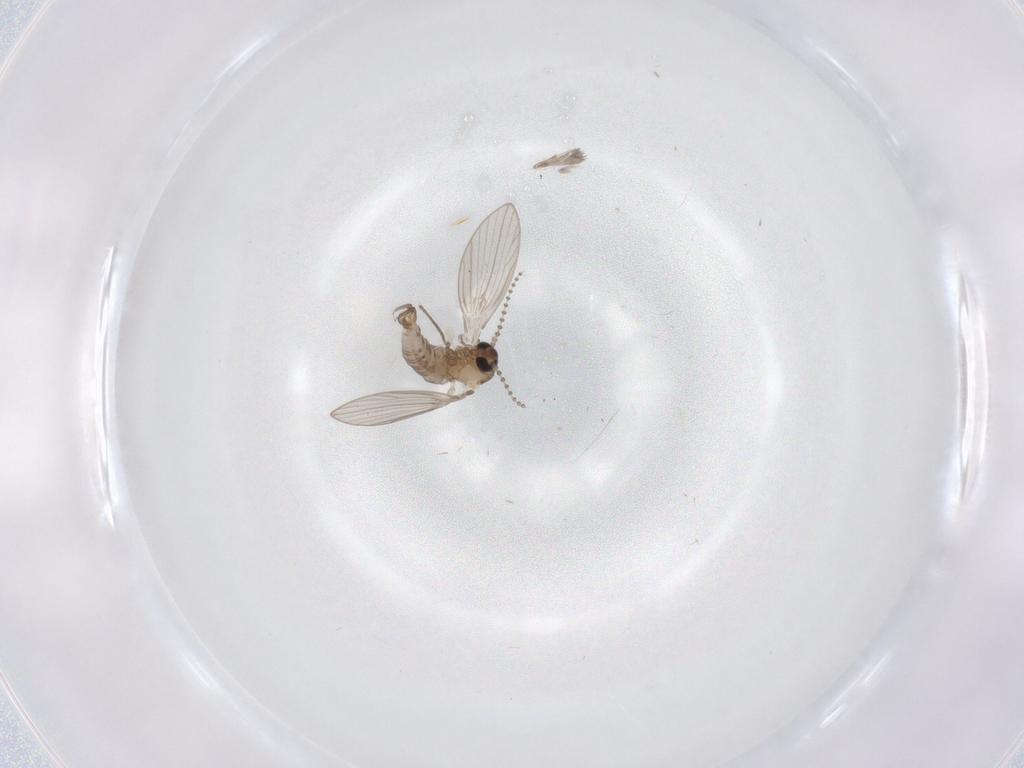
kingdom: Animalia
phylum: Arthropoda
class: Insecta
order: Diptera
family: Psychodidae
